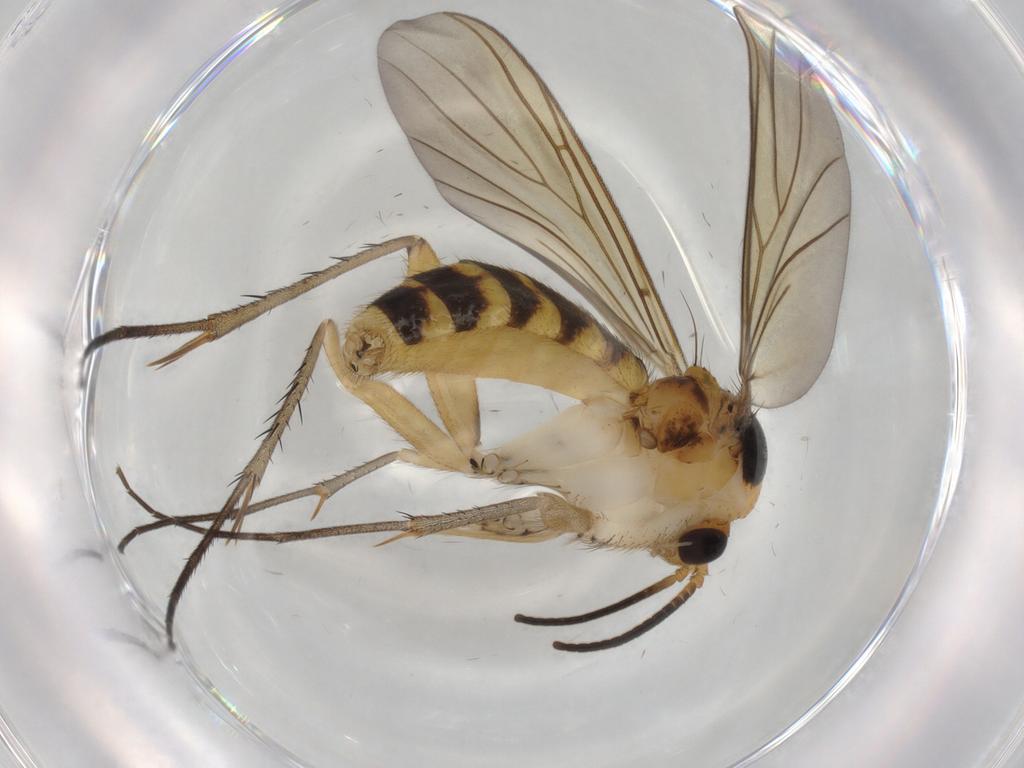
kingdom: Animalia
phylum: Arthropoda
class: Insecta
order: Diptera
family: Mycetophilidae
